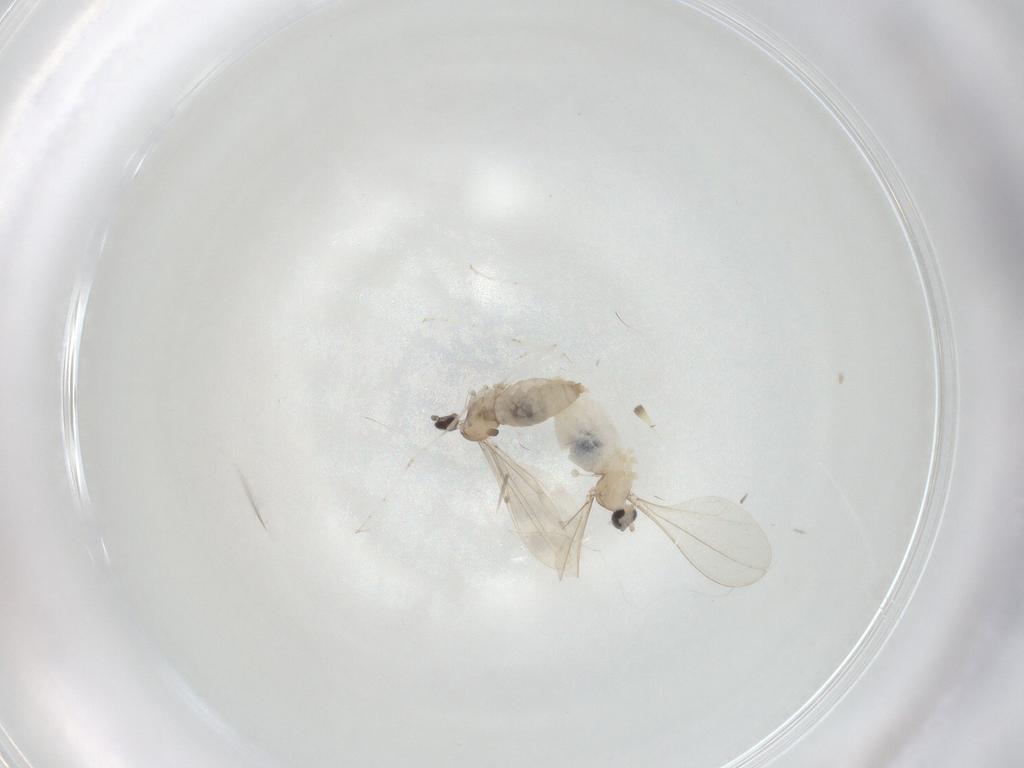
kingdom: Animalia
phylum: Arthropoda
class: Insecta
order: Diptera
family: Cecidomyiidae
